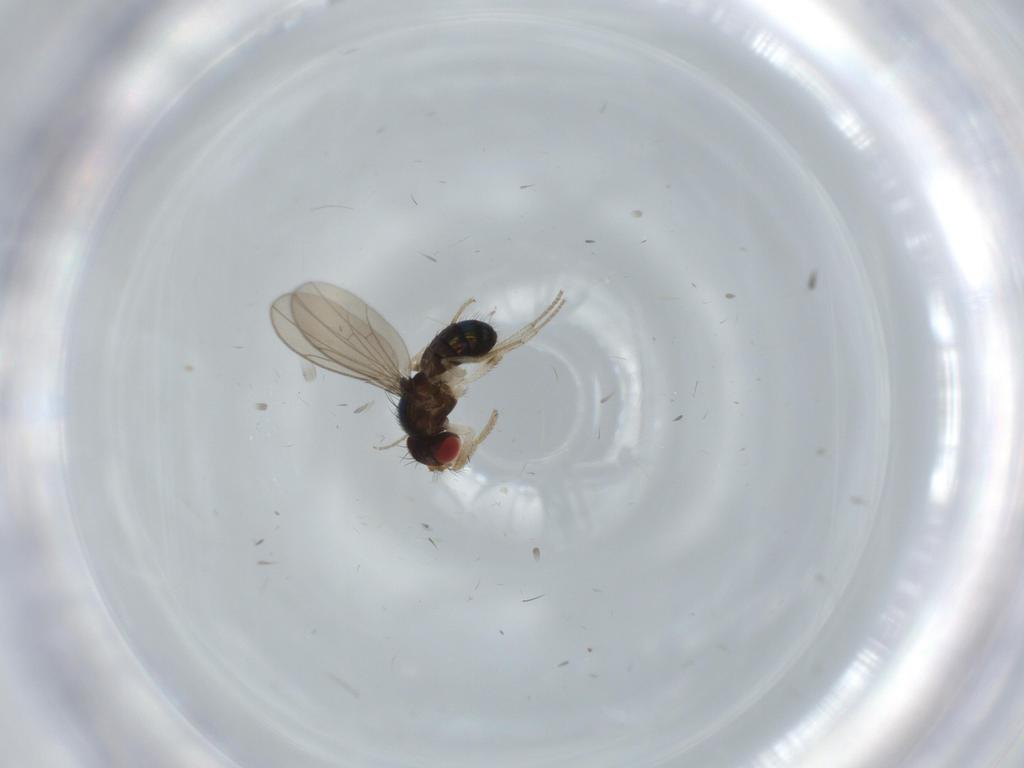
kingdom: Animalia
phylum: Arthropoda
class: Insecta
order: Diptera
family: Drosophilidae
